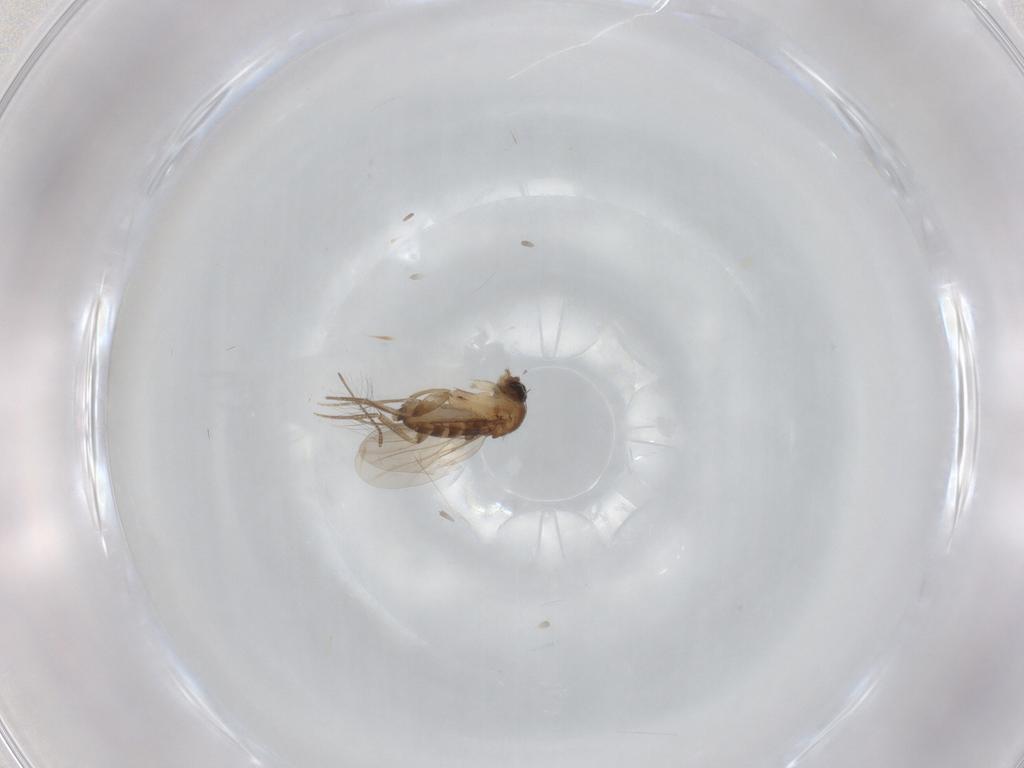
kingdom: Animalia
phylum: Arthropoda
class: Insecta
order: Diptera
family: Phoridae
